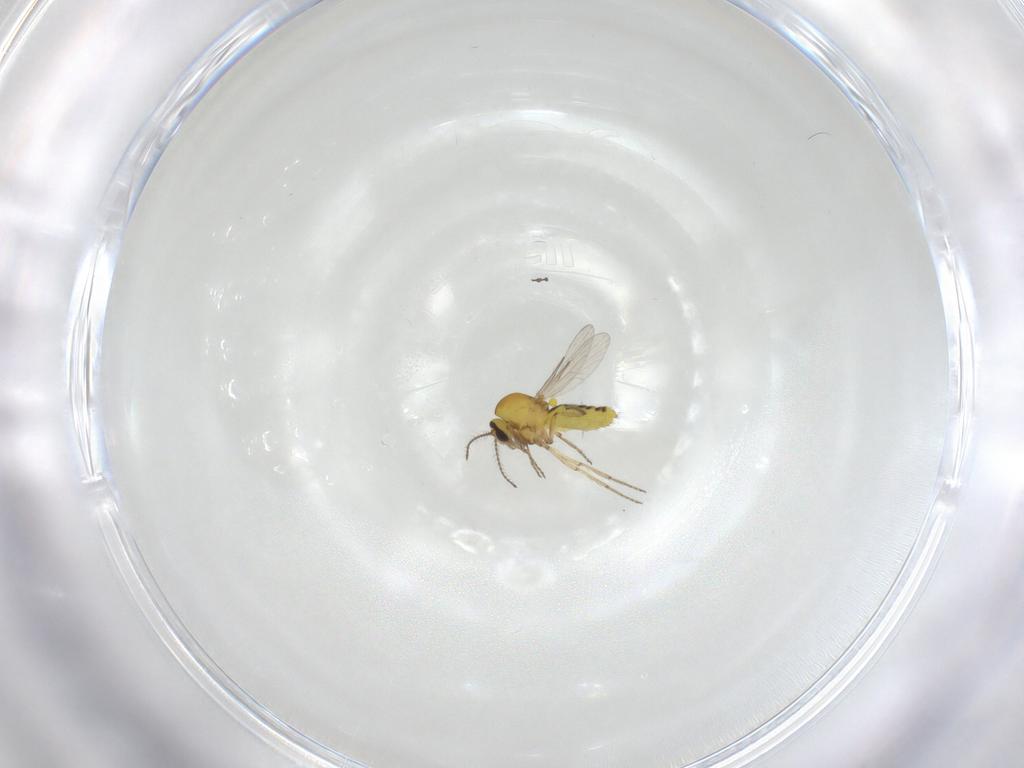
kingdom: Animalia
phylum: Arthropoda
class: Insecta
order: Diptera
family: Ceratopogonidae
